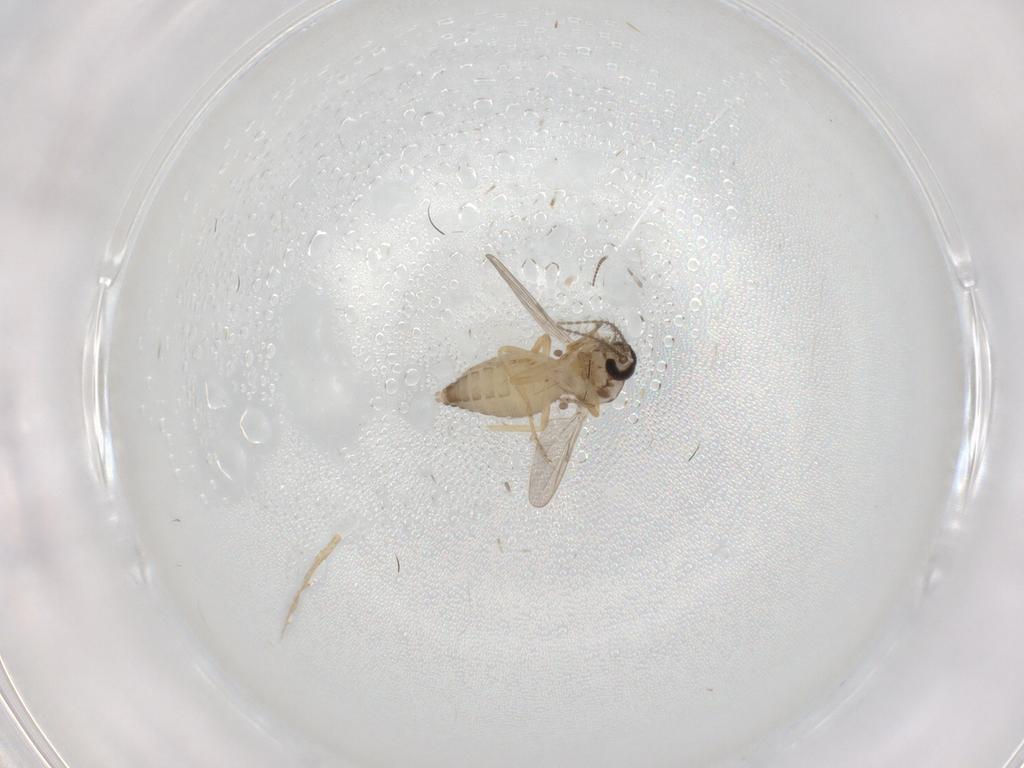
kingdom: Animalia
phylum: Arthropoda
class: Insecta
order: Diptera
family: Ceratopogonidae
